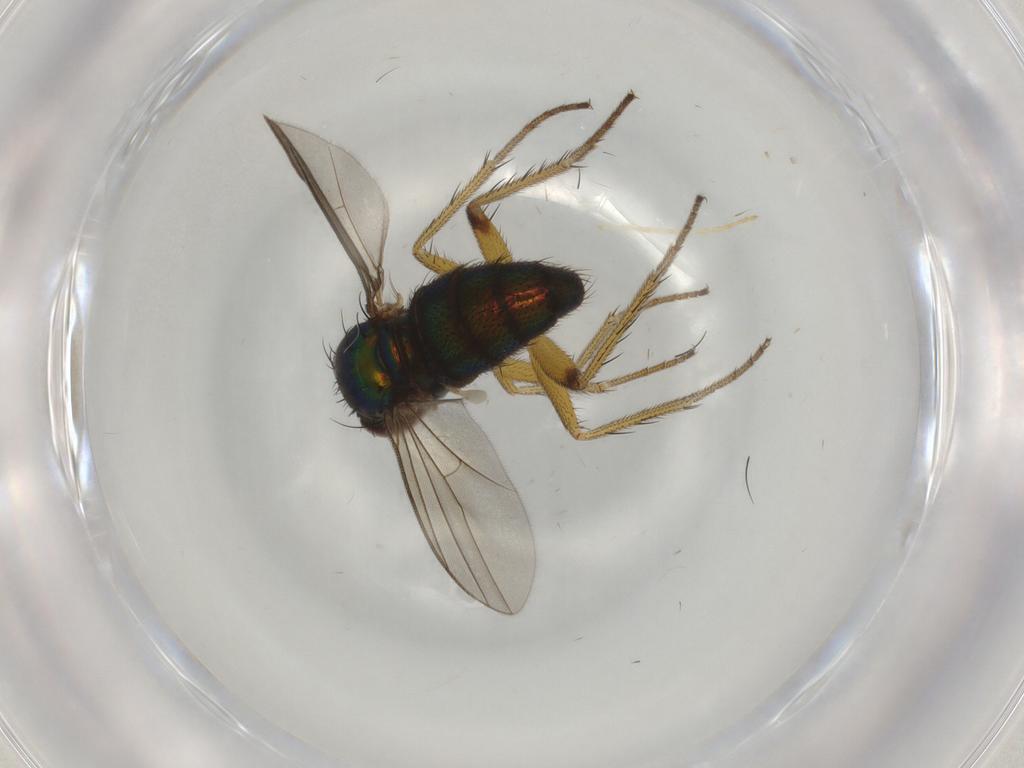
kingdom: Animalia
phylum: Arthropoda
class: Insecta
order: Diptera
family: Dolichopodidae
